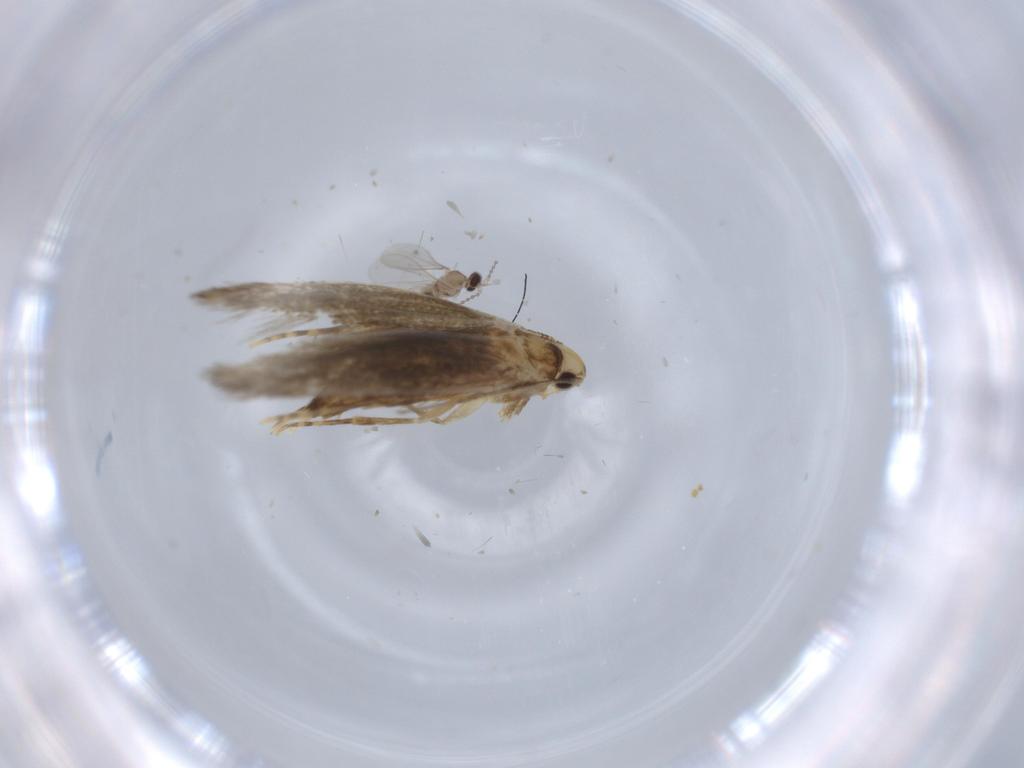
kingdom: Animalia
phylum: Arthropoda
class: Insecta
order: Lepidoptera
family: Tineidae
